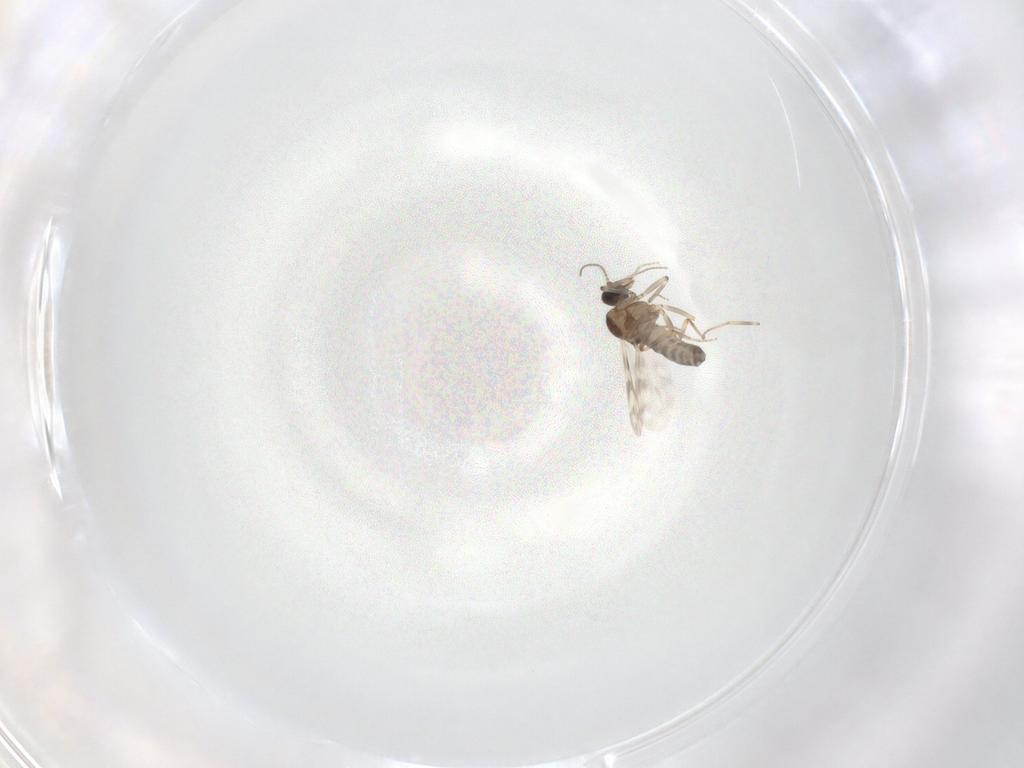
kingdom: Animalia
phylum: Arthropoda
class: Insecta
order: Diptera
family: Ceratopogonidae
